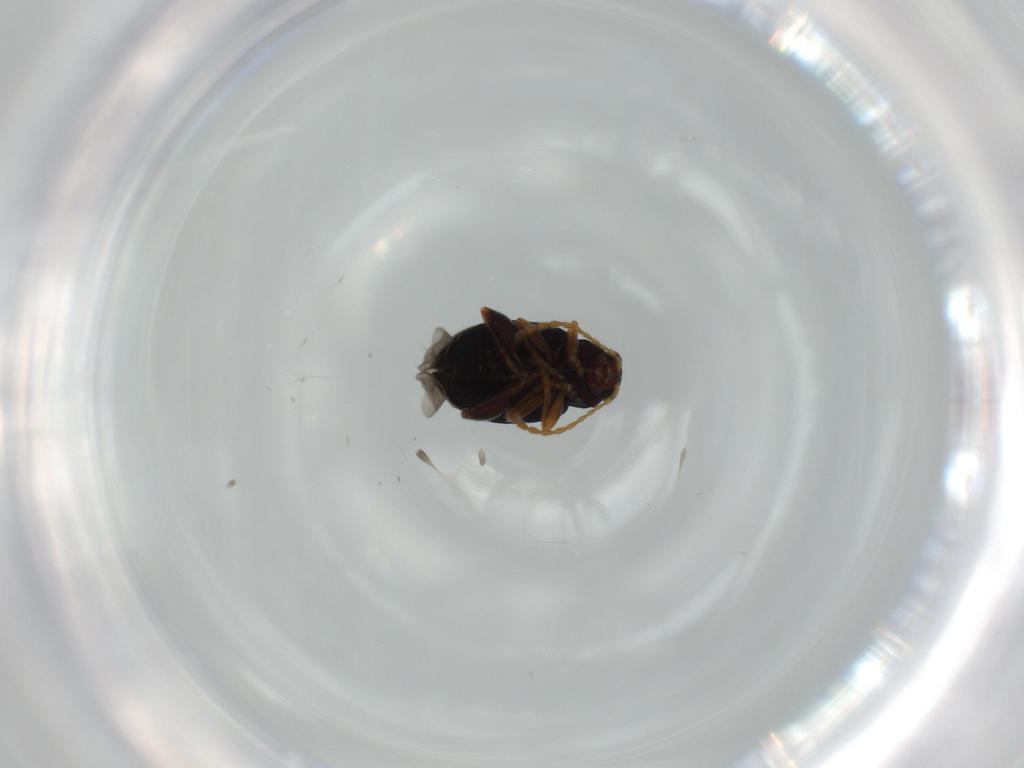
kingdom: Animalia
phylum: Arthropoda
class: Insecta
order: Coleoptera
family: Chrysomelidae
